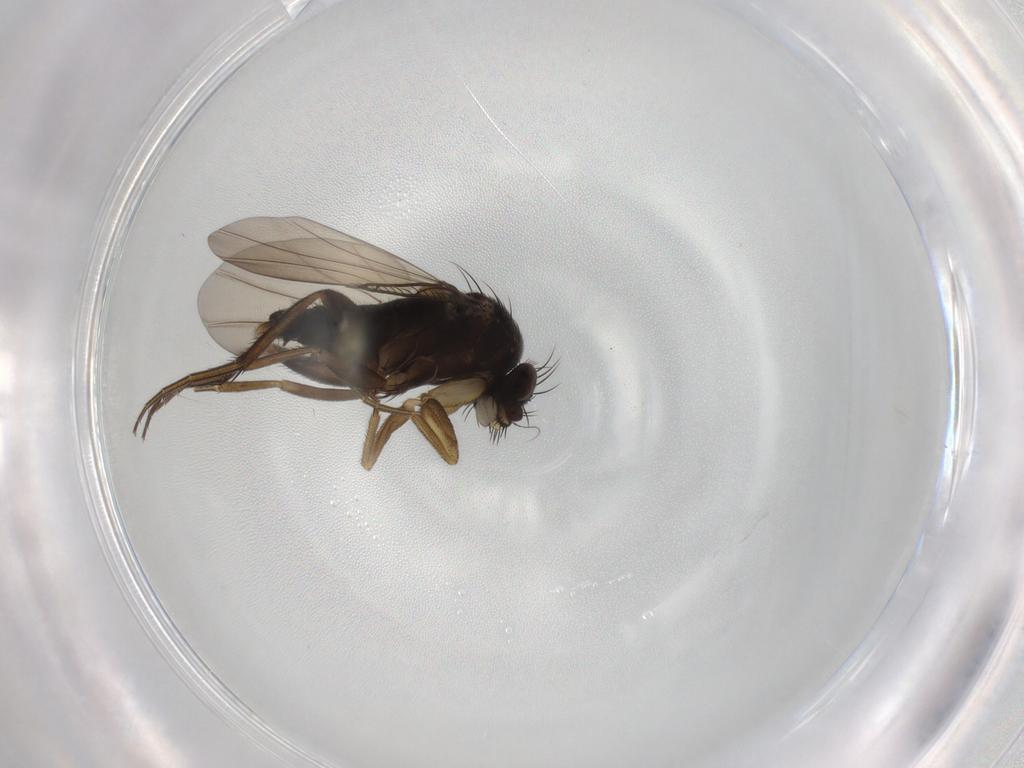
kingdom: Animalia
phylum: Arthropoda
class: Insecta
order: Diptera
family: Phoridae
